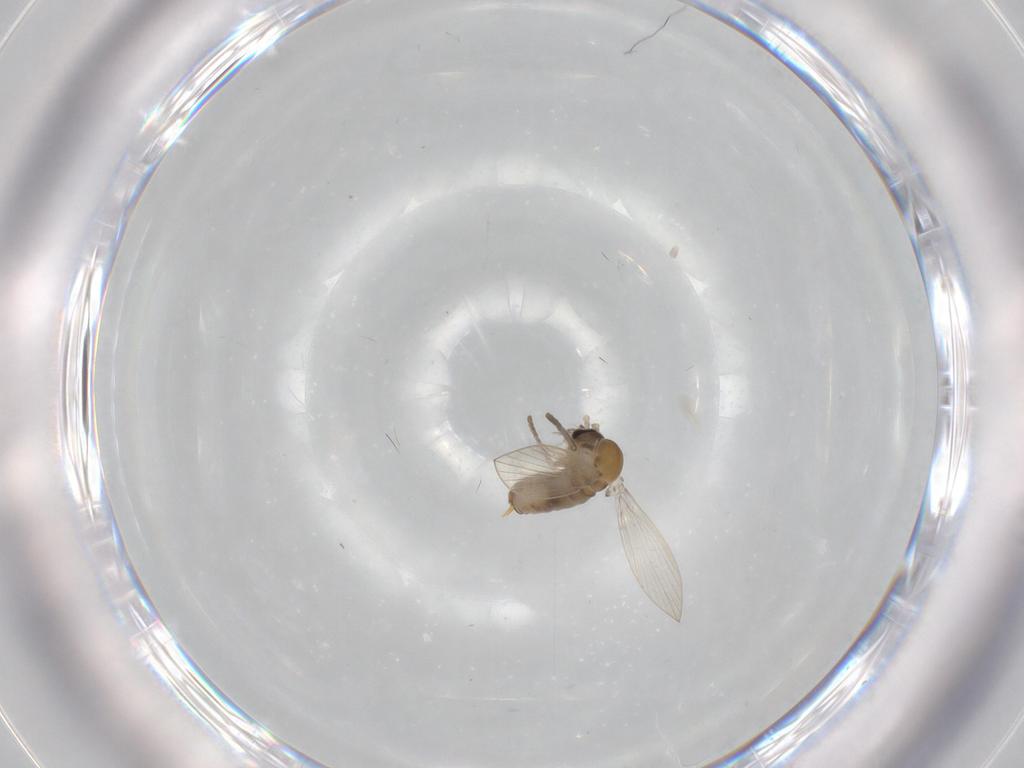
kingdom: Animalia
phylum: Arthropoda
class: Insecta
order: Diptera
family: Psychodidae
